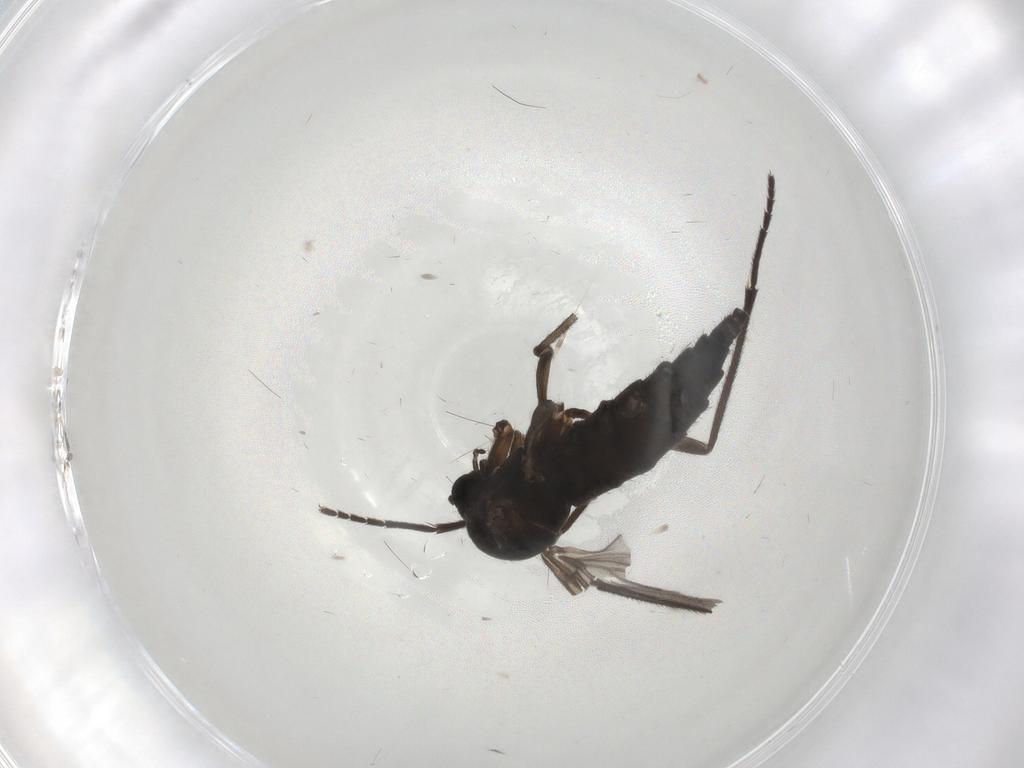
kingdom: Animalia
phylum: Arthropoda
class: Insecta
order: Diptera
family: Sciaridae
